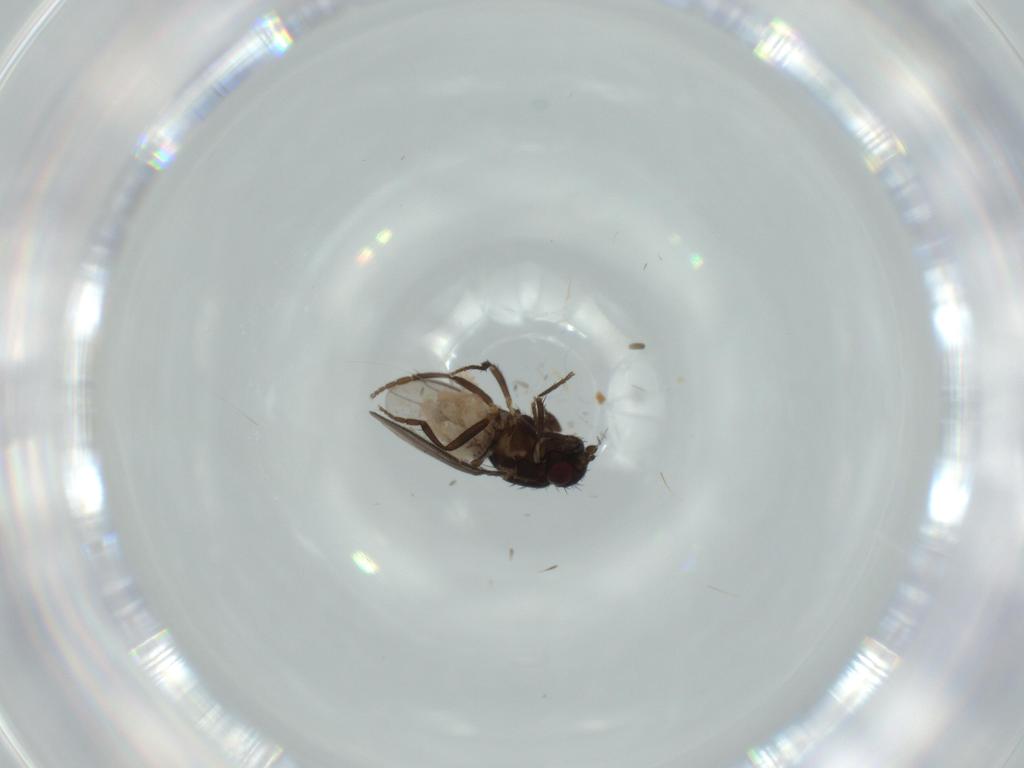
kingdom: Animalia
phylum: Arthropoda
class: Insecta
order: Diptera
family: Sphaeroceridae
